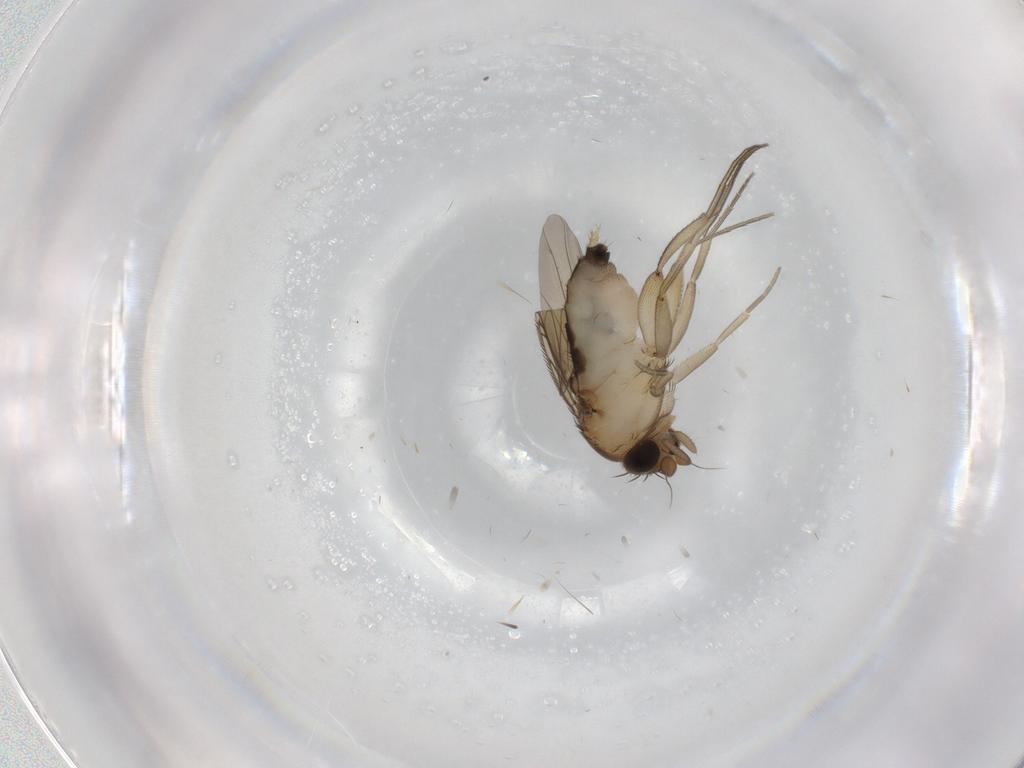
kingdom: Animalia
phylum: Arthropoda
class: Insecta
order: Diptera
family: Phoridae
